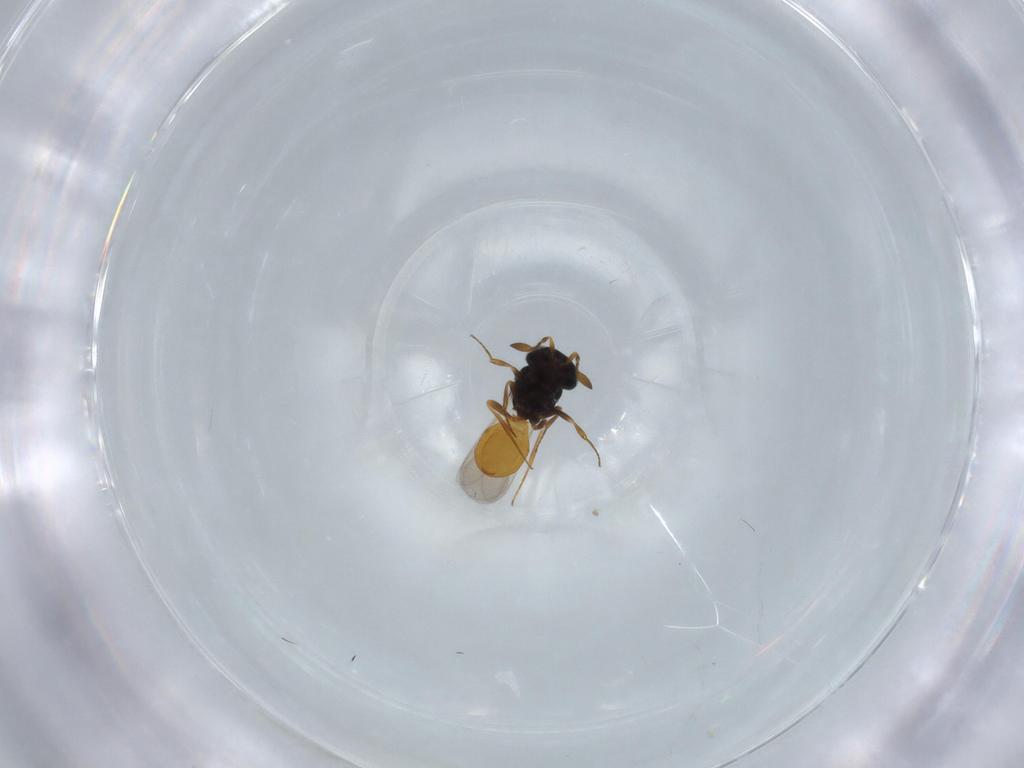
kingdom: Animalia
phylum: Arthropoda
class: Insecta
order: Hymenoptera
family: Scelionidae
